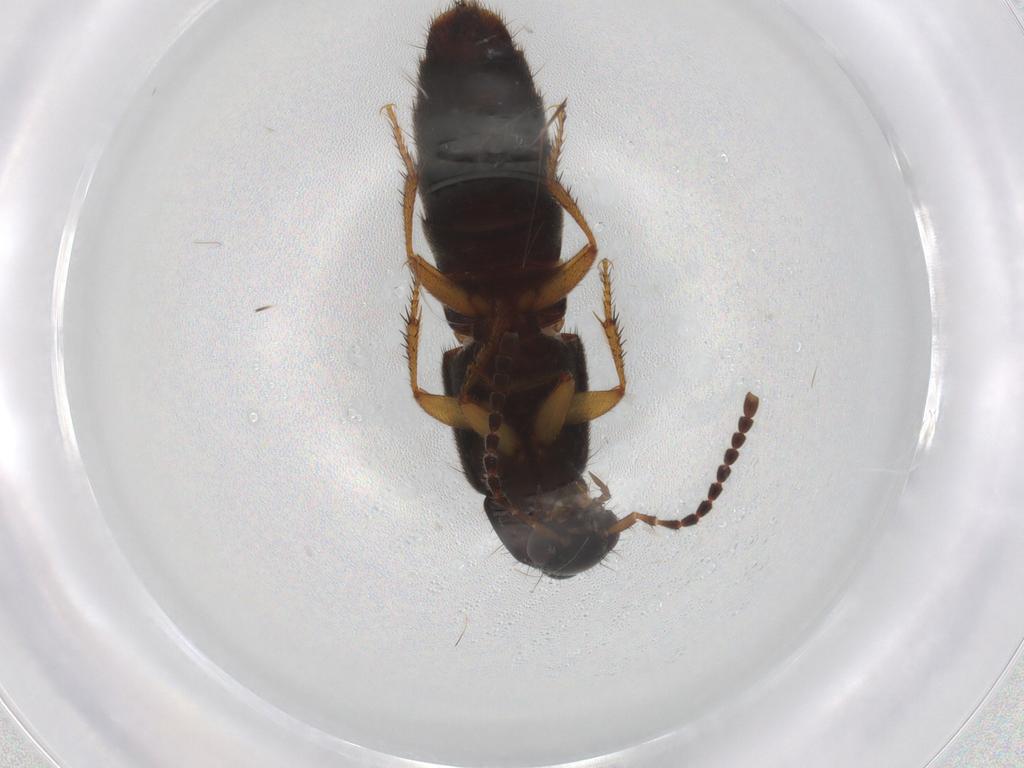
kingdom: Animalia
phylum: Arthropoda
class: Insecta
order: Coleoptera
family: Staphylinidae
